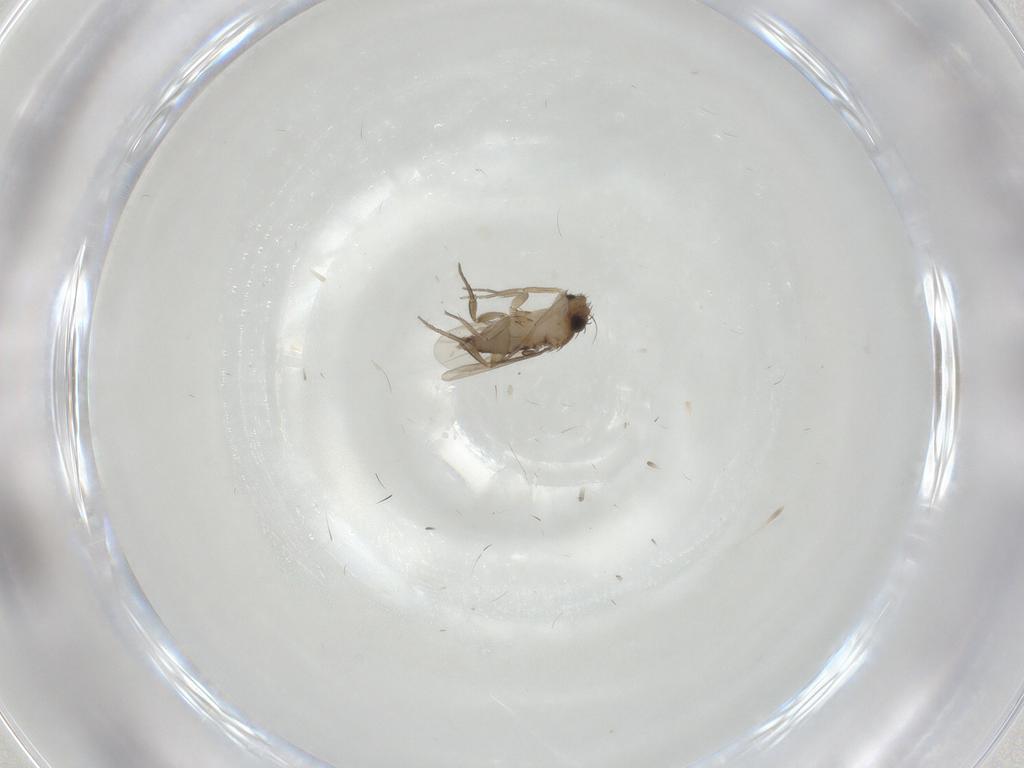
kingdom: Animalia
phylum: Arthropoda
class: Insecta
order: Diptera
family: Phoridae
